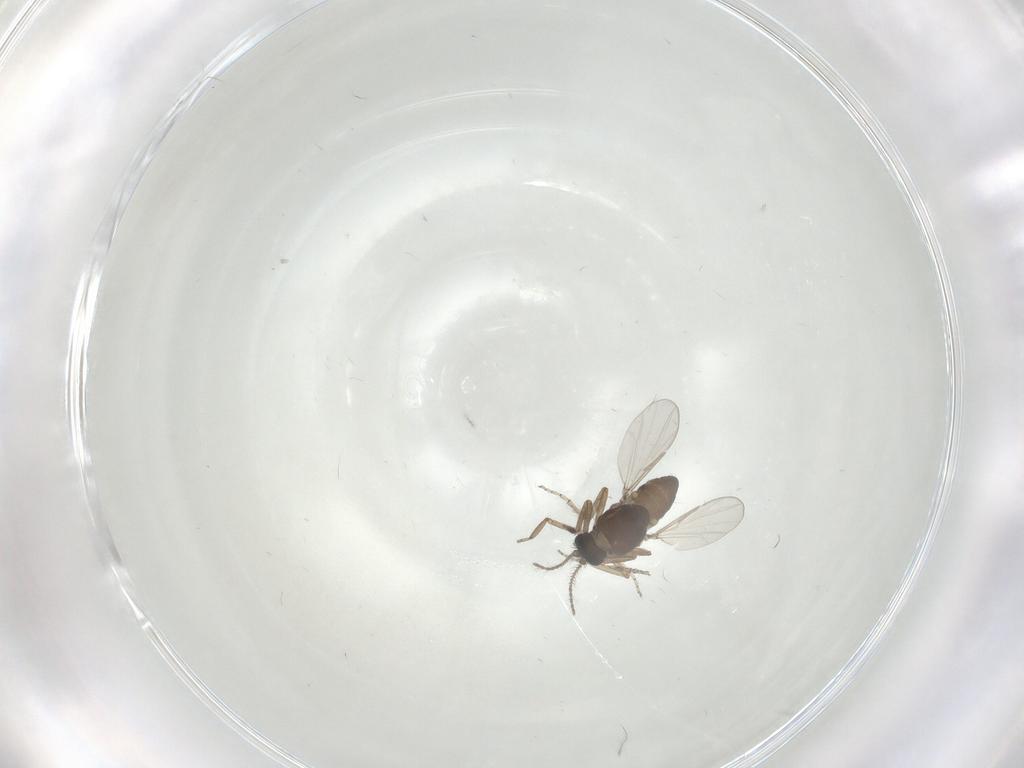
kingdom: Animalia
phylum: Arthropoda
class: Insecta
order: Diptera
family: Ceratopogonidae
